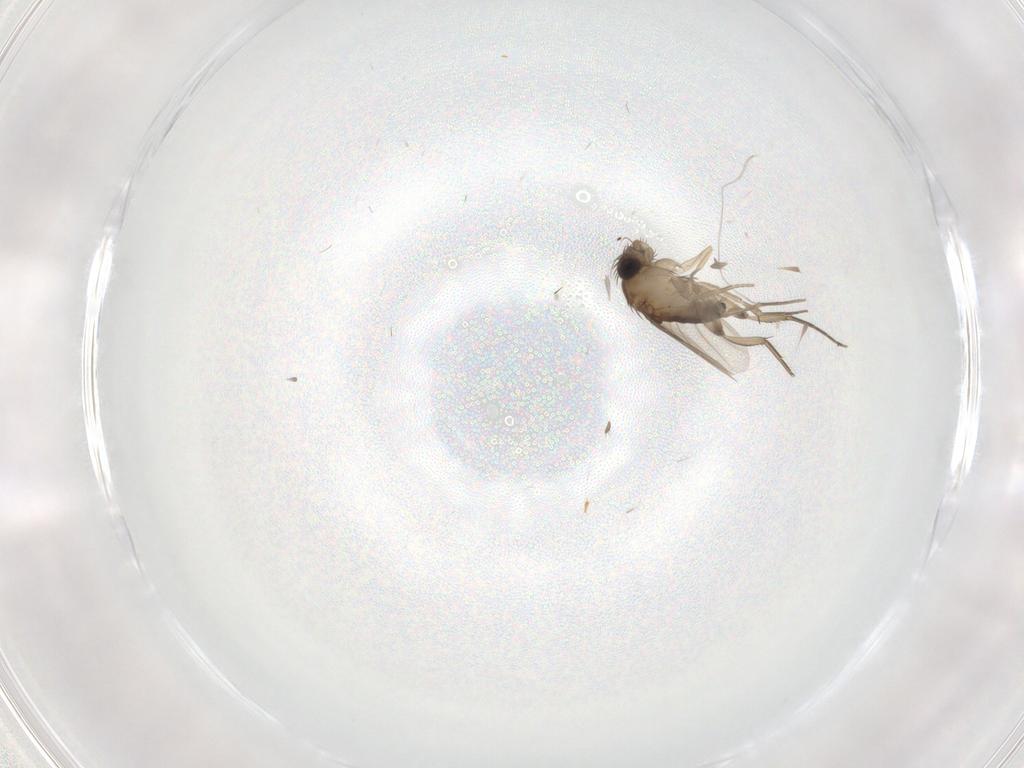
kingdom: Animalia
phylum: Arthropoda
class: Insecta
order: Diptera
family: Phoridae
